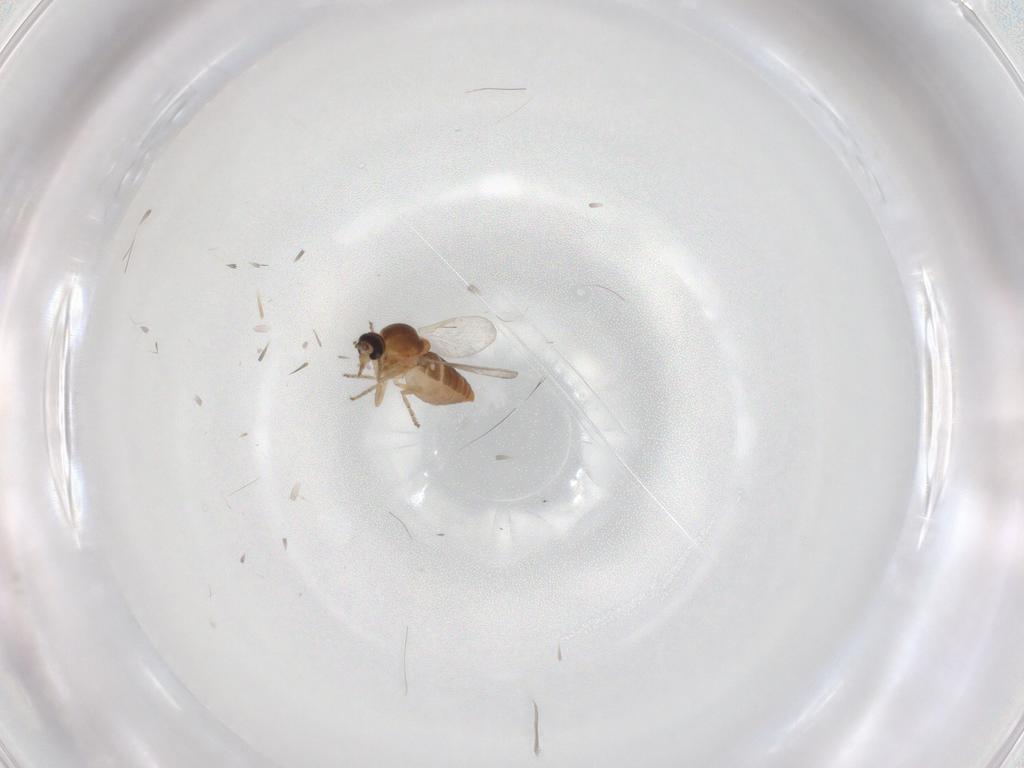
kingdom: Animalia
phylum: Arthropoda
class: Insecta
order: Diptera
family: Ceratopogonidae
